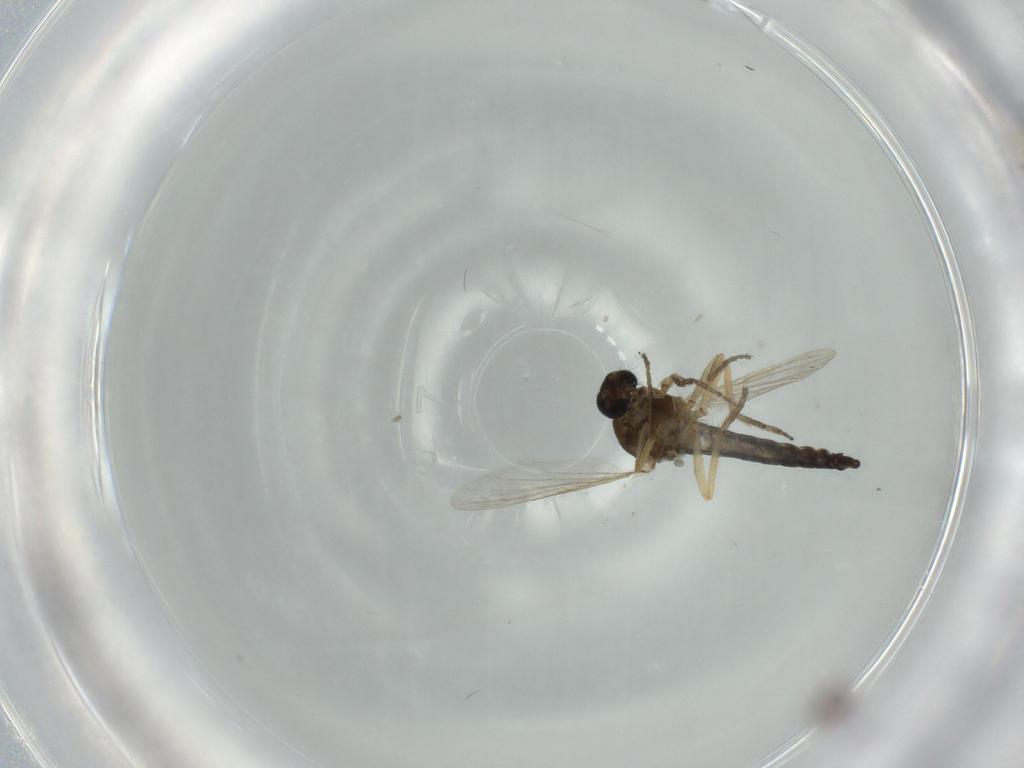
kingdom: Animalia
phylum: Arthropoda
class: Insecta
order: Diptera
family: Ceratopogonidae
